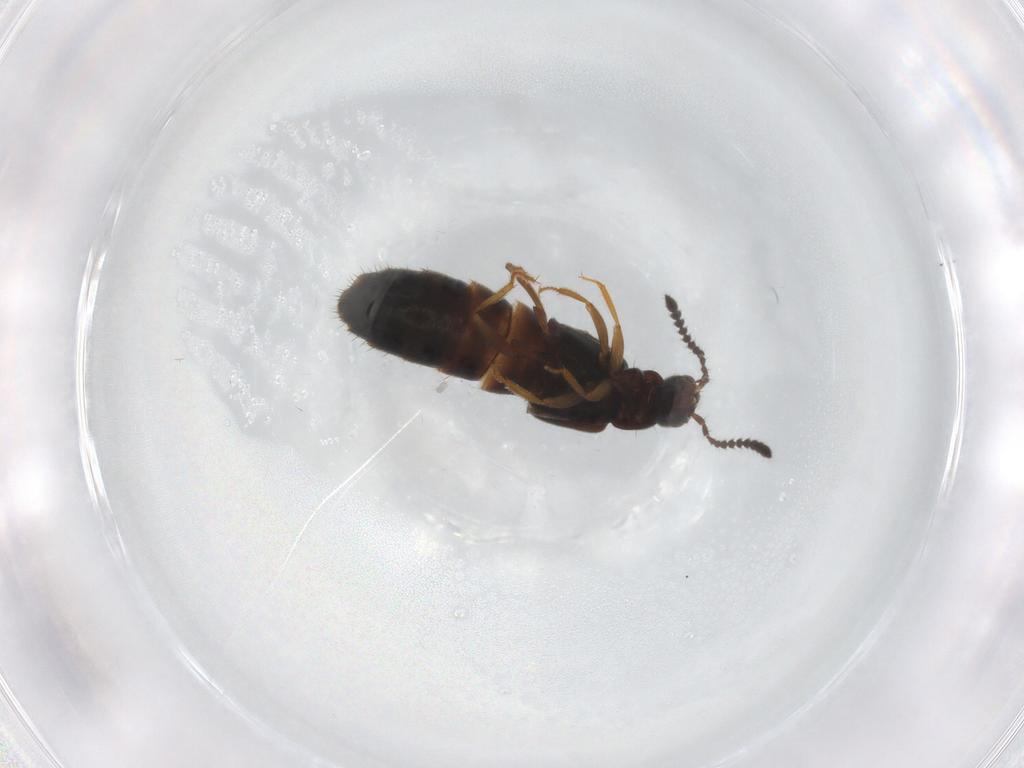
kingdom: Animalia
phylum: Arthropoda
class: Insecta
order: Coleoptera
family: Staphylinidae
